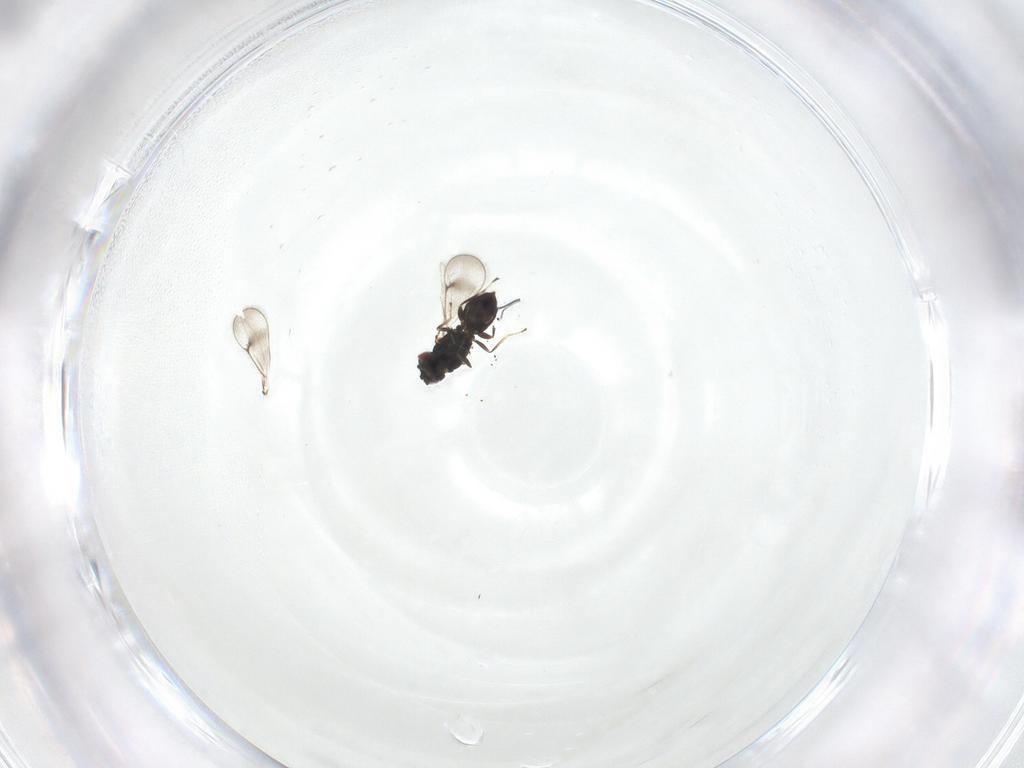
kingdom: Animalia
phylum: Arthropoda
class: Insecta
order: Hymenoptera
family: Eulophidae
